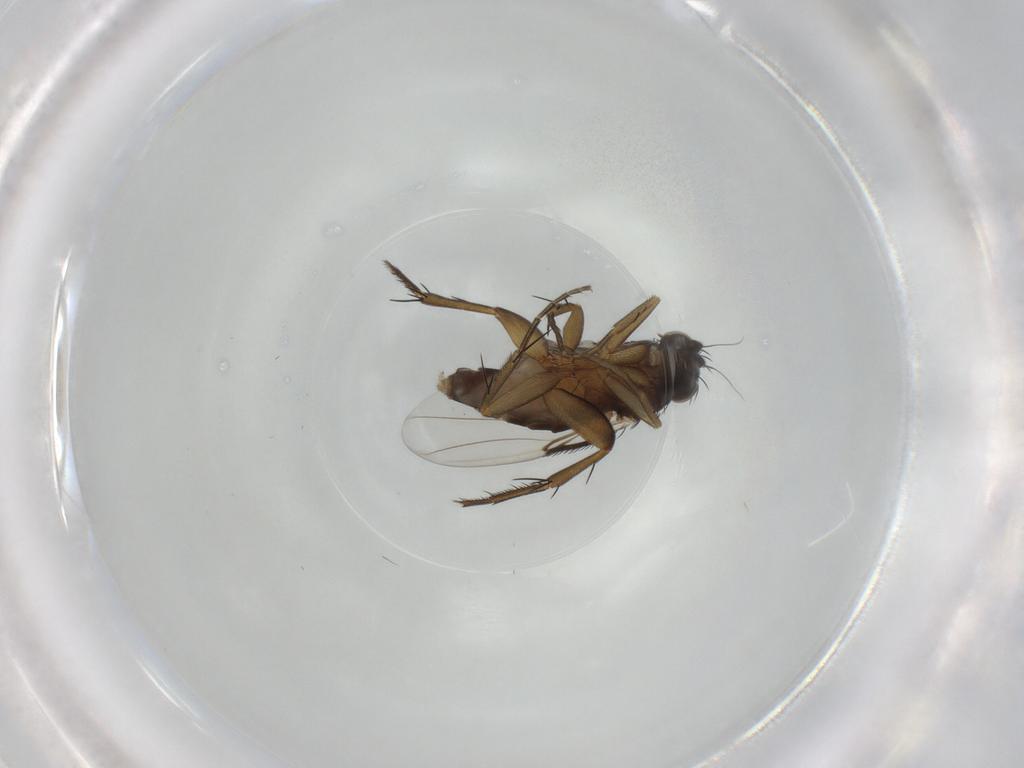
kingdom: Animalia
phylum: Arthropoda
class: Insecta
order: Diptera
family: Phoridae
